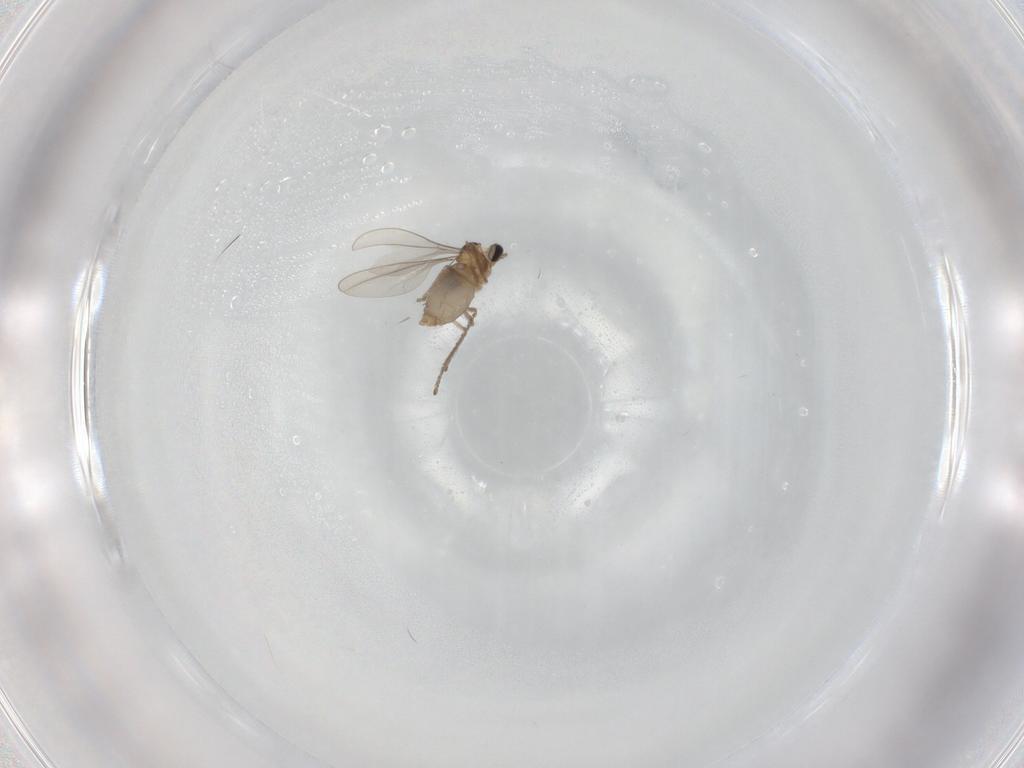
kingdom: Animalia
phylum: Arthropoda
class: Insecta
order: Diptera
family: Cecidomyiidae
